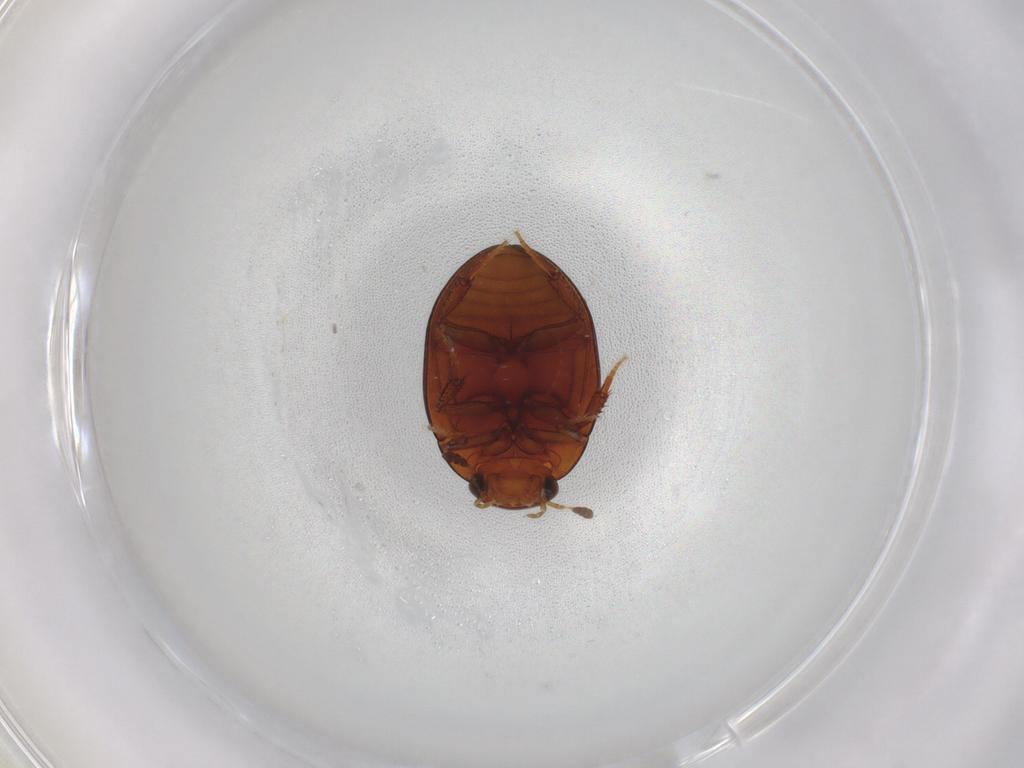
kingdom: Animalia
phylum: Arthropoda
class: Insecta
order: Coleoptera
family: Hydrophilidae
